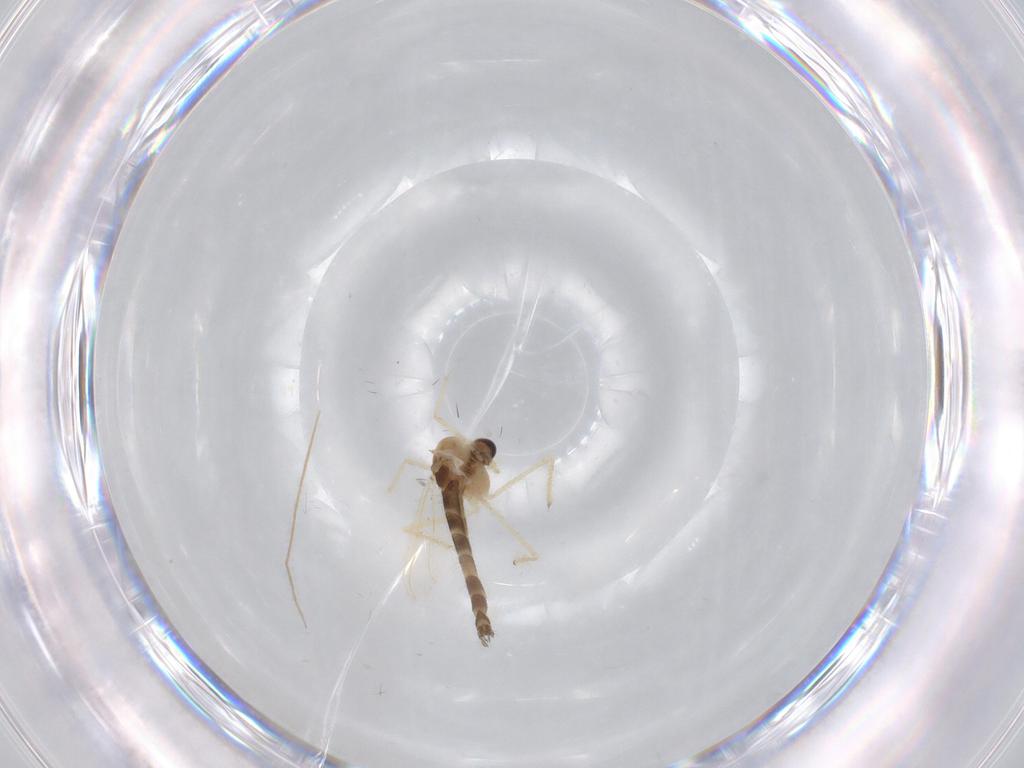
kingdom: Animalia
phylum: Arthropoda
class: Insecta
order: Diptera
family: Chironomidae
